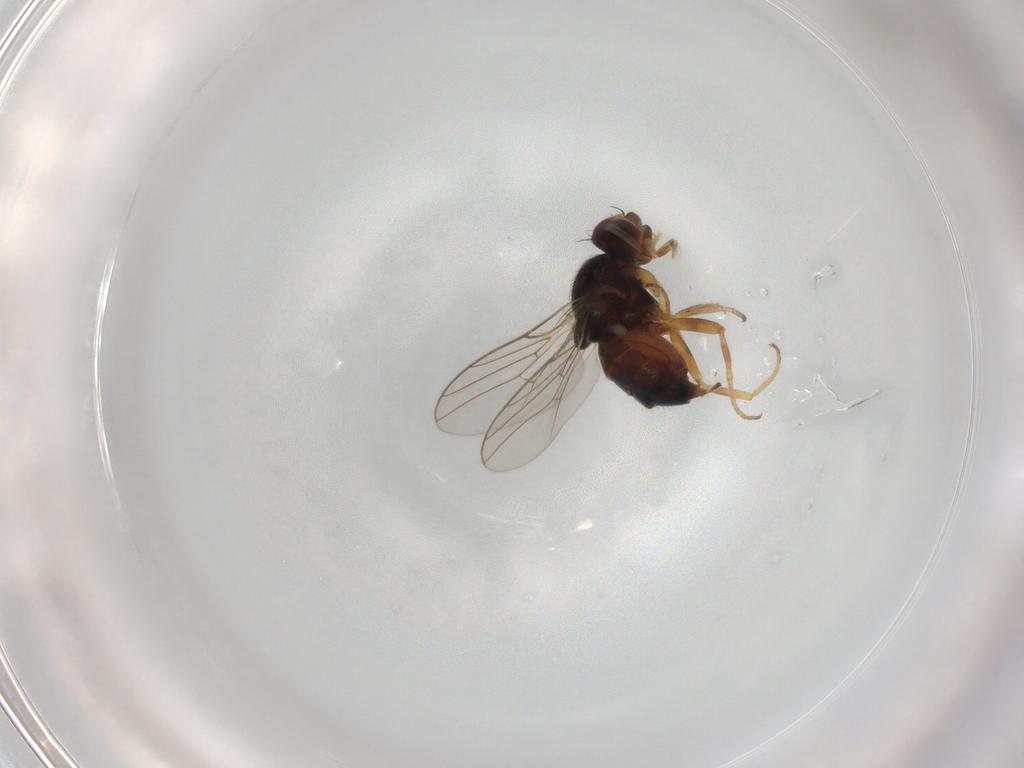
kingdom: Animalia
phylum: Arthropoda
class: Insecta
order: Diptera
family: Chloropidae
